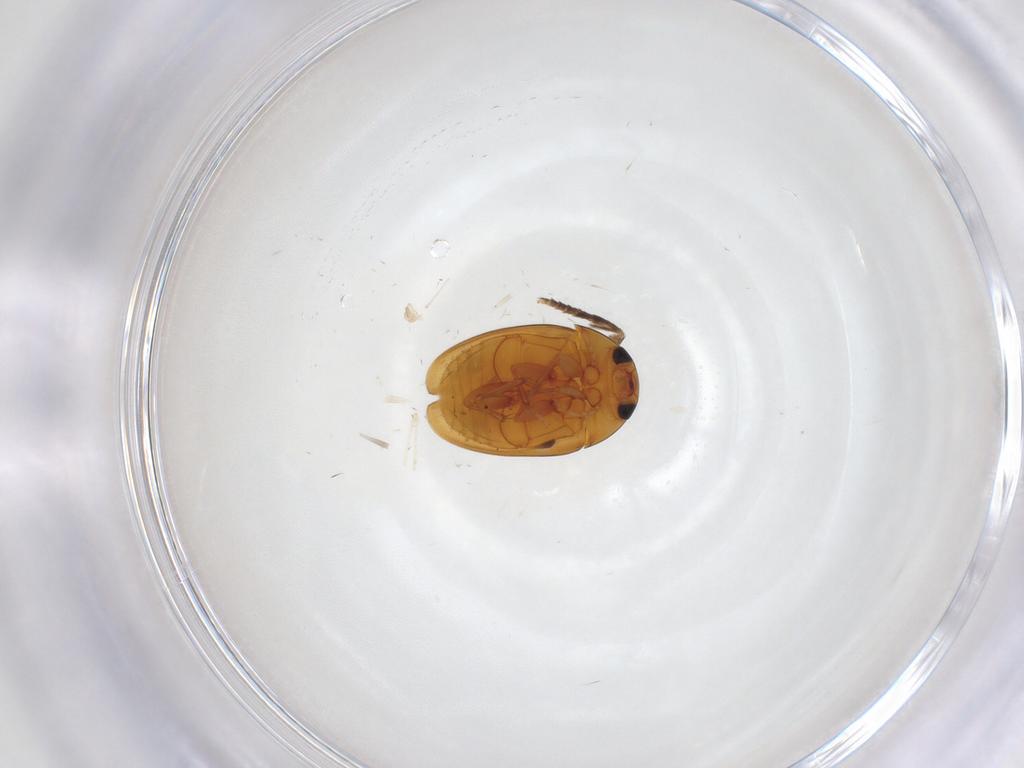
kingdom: Animalia
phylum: Arthropoda
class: Insecta
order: Coleoptera
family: Phalacridae
